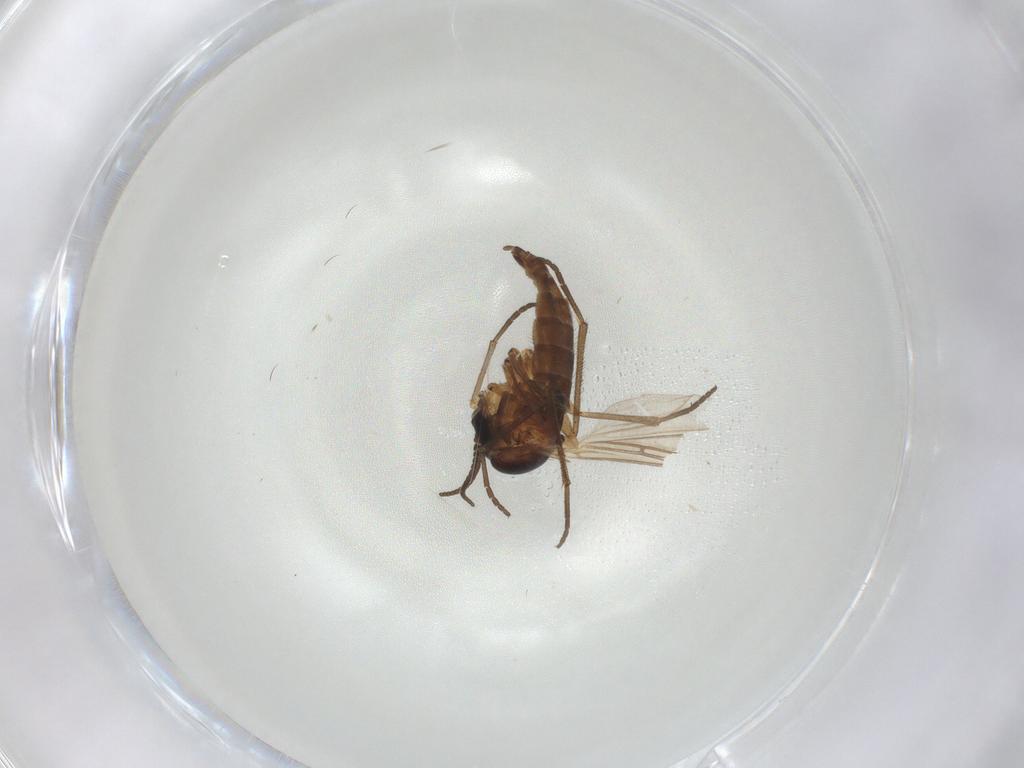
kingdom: Animalia
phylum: Arthropoda
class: Insecta
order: Diptera
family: Sciaridae
